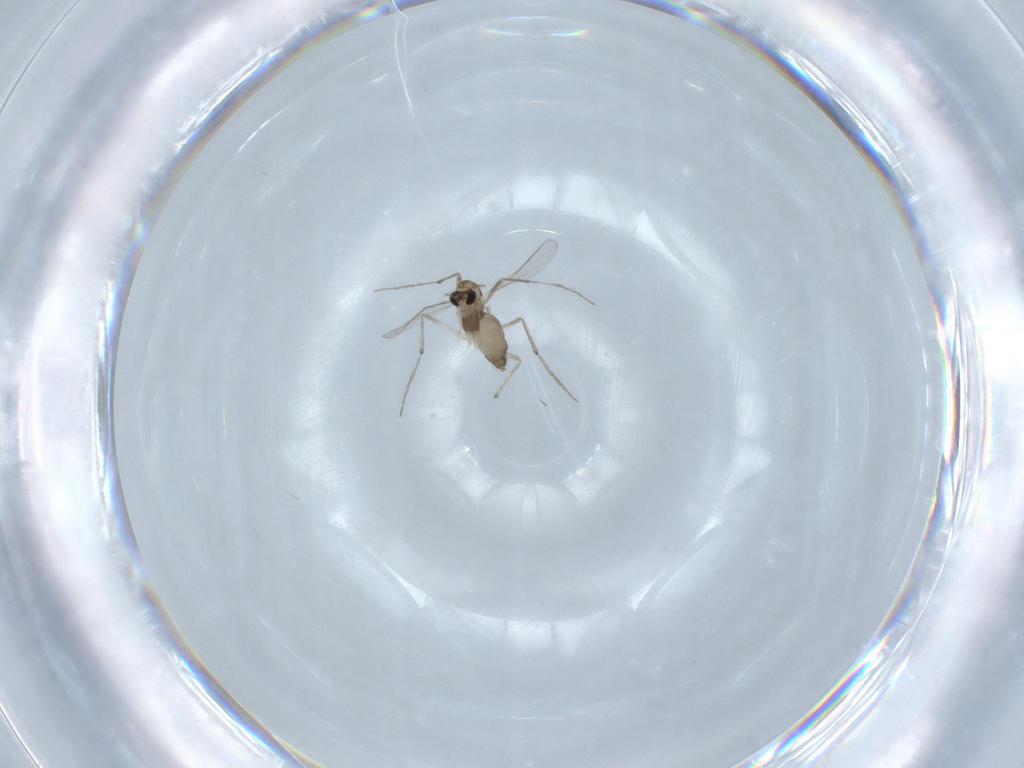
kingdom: Animalia
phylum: Arthropoda
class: Insecta
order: Diptera
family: Chironomidae
